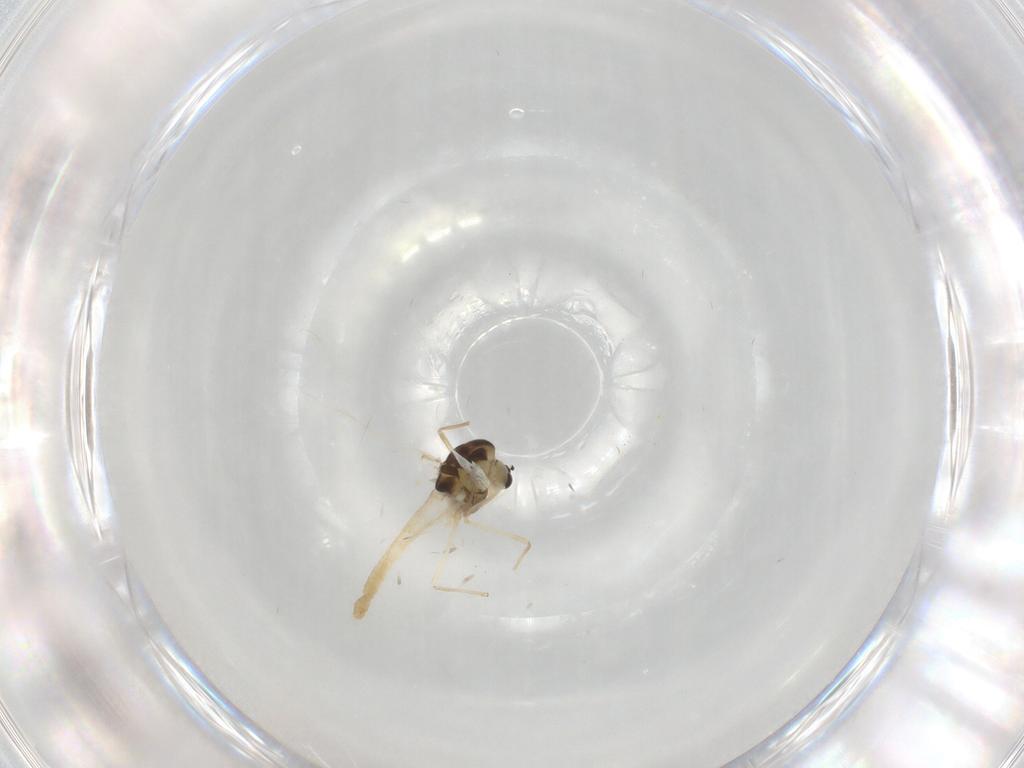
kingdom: Animalia
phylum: Arthropoda
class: Insecta
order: Diptera
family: Chironomidae
